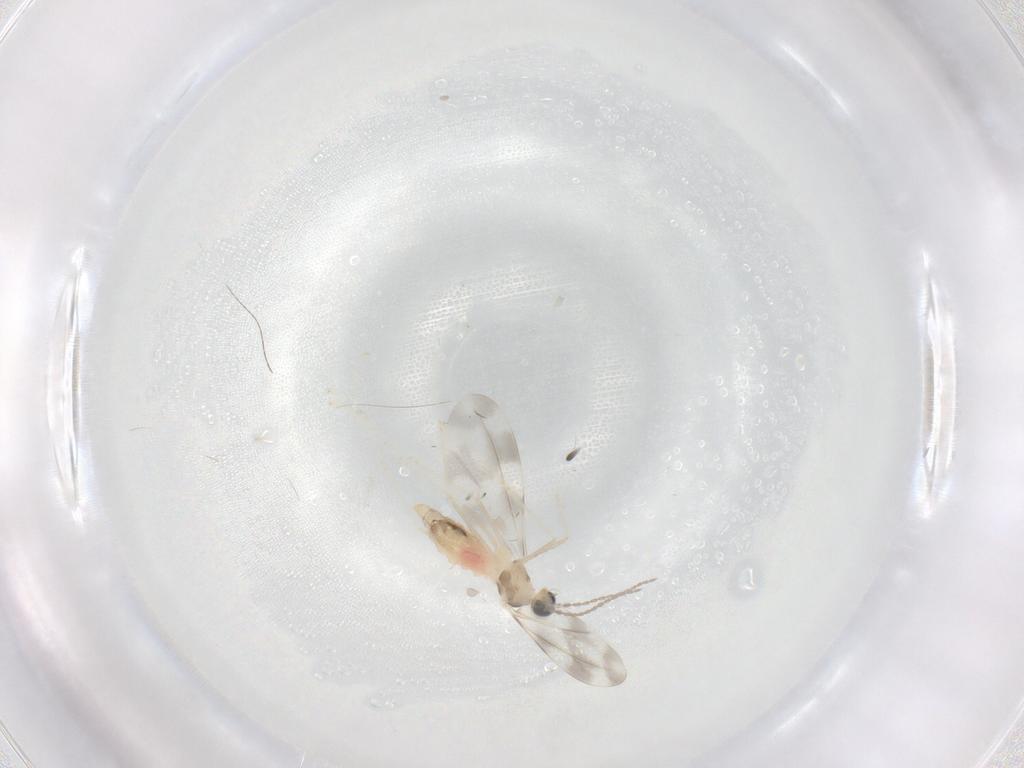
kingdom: Animalia
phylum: Arthropoda
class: Insecta
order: Diptera
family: Cecidomyiidae
